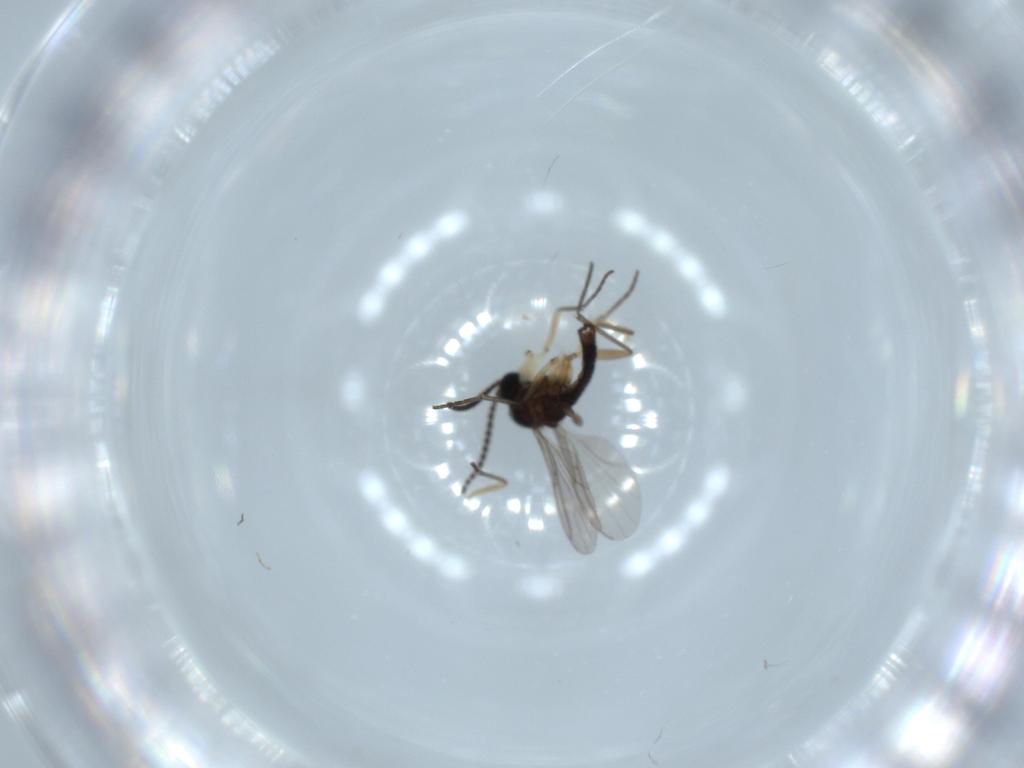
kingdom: Animalia
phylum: Arthropoda
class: Insecta
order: Diptera
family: Sciaridae
